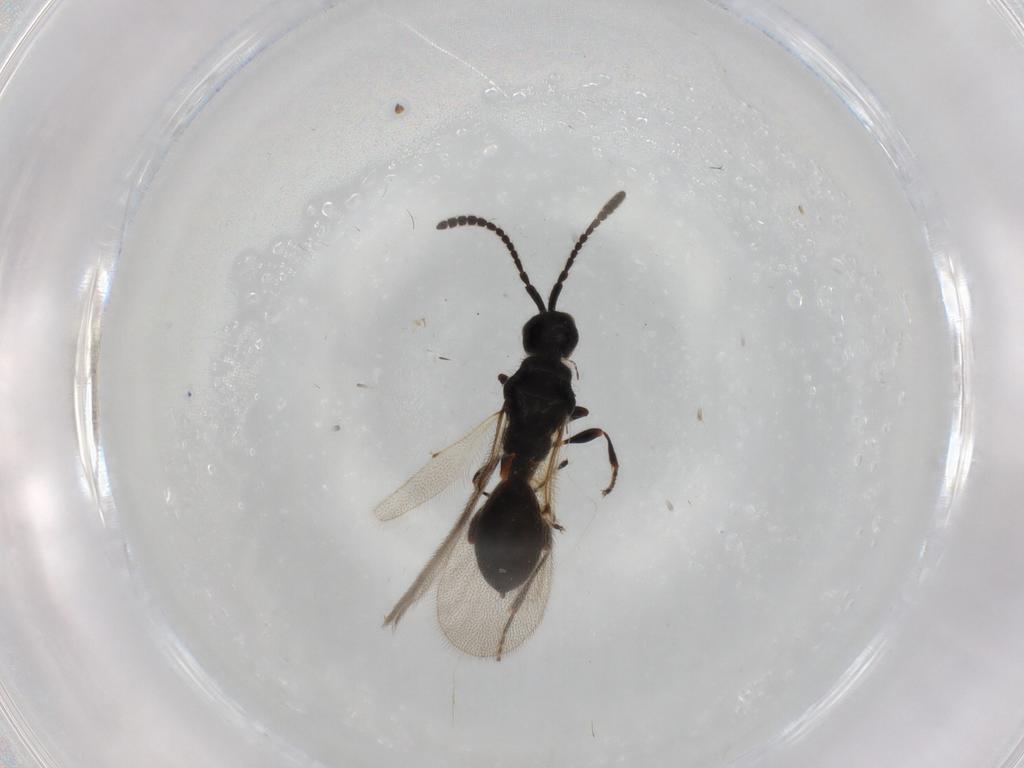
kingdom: Animalia
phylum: Arthropoda
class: Insecta
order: Hymenoptera
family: Diapriidae
